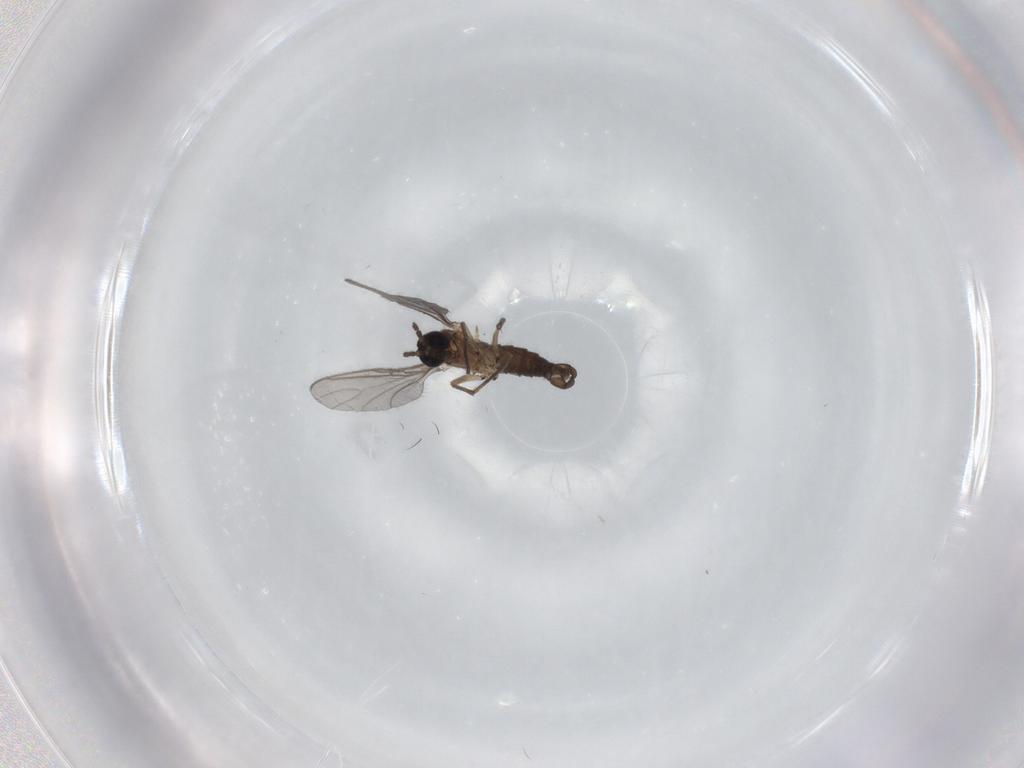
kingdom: Animalia
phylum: Arthropoda
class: Insecta
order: Diptera
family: Sciaridae
